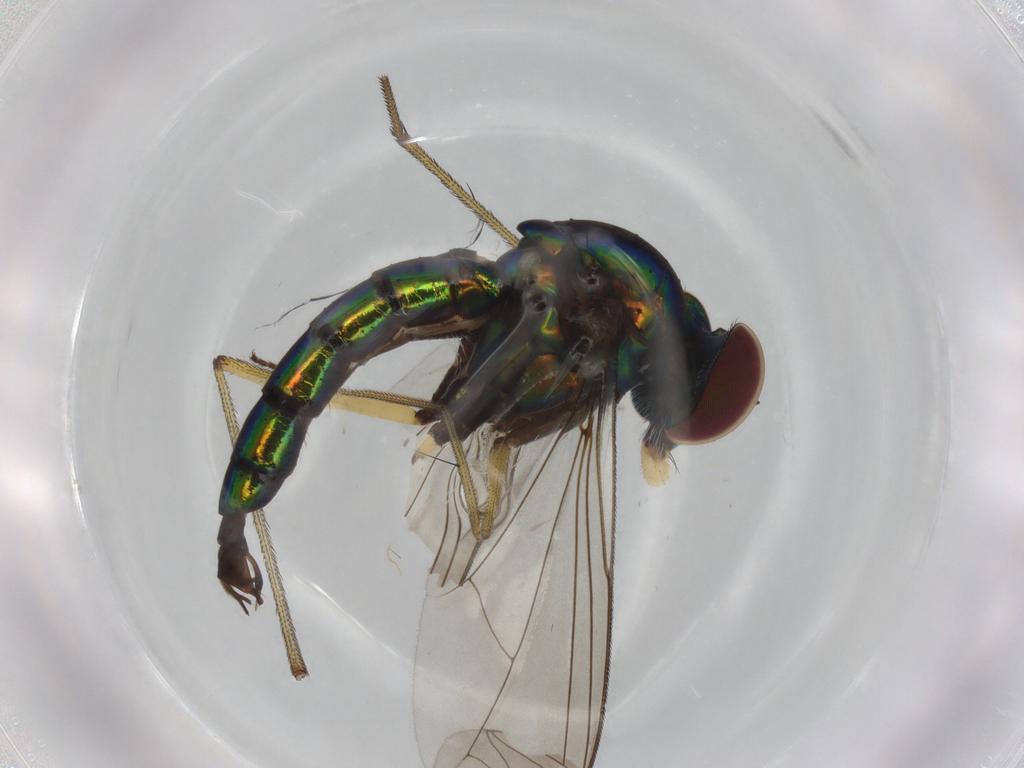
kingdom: Animalia
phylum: Arthropoda
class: Insecta
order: Diptera
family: Dolichopodidae
